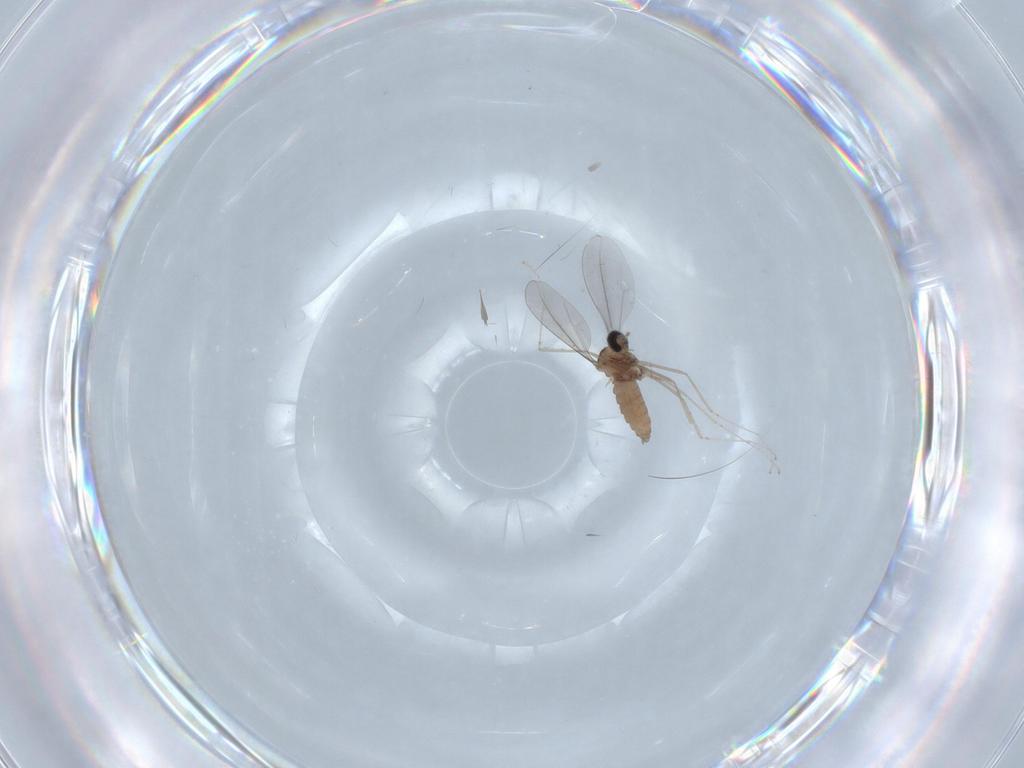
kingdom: Animalia
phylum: Arthropoda
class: Insecta
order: Diptera
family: Cecidomyiidae
